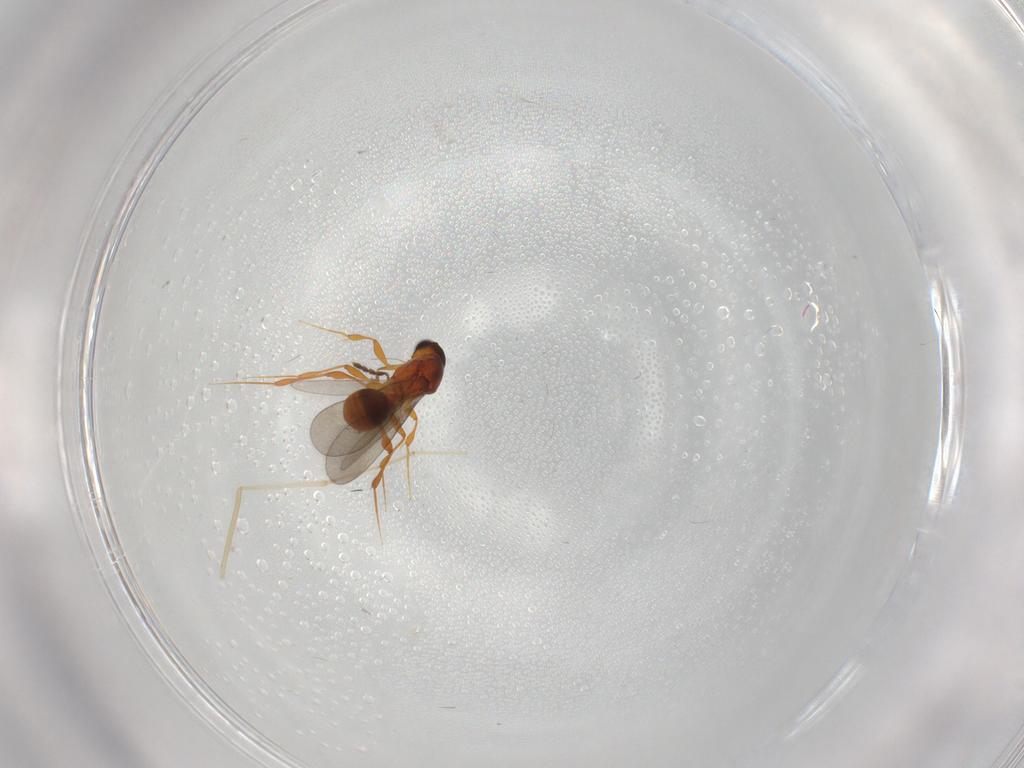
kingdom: Animalia
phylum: Arthropoda
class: Insecta
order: Hymenoptera
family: Platygastridae
